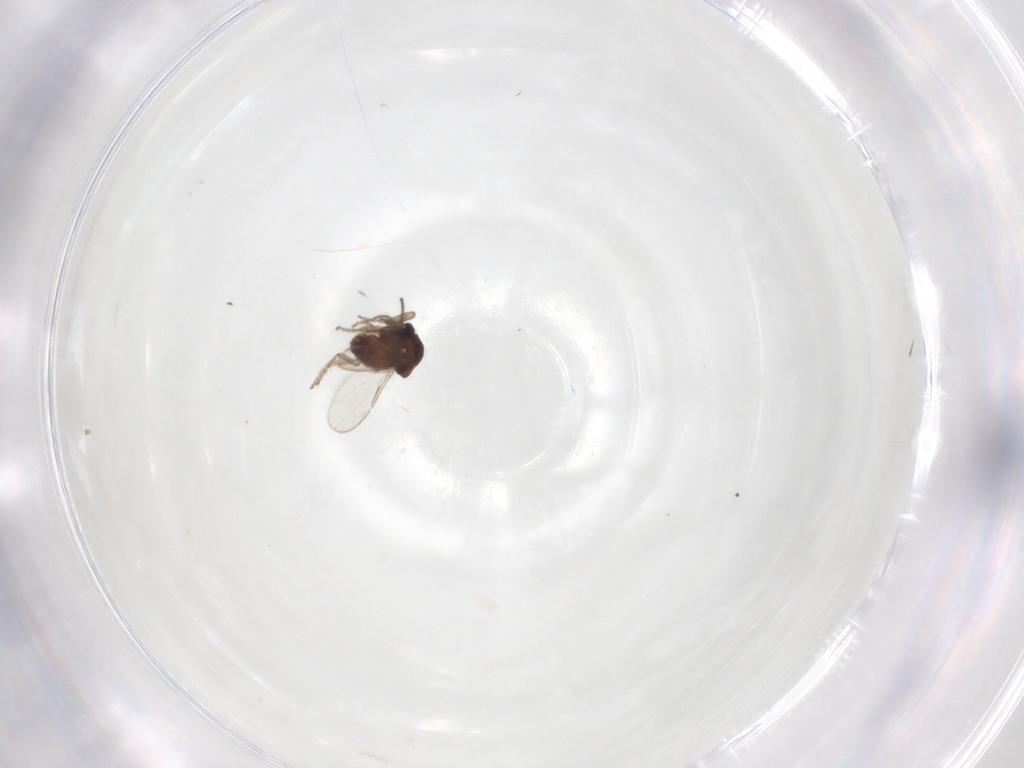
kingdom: Animalia
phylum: Arthropoda
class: Insecta
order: Diptera
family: Ceratopogonidae
